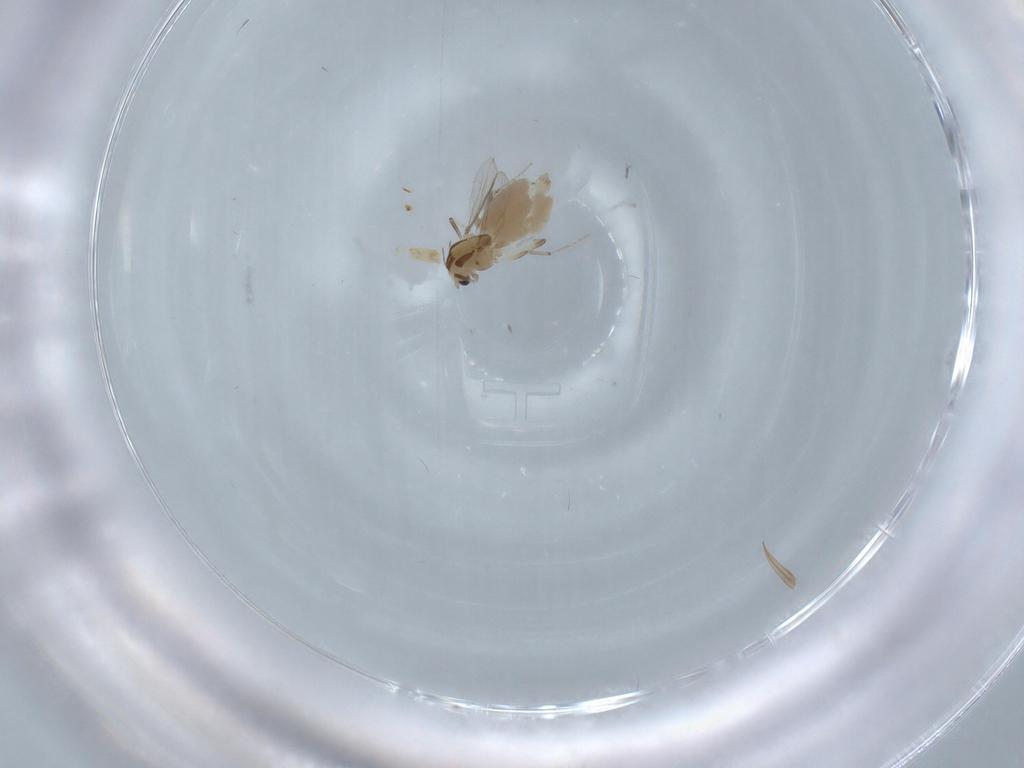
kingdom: Animalia
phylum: Arthropoda
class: Insecta
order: Diptera
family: Chironomidae
